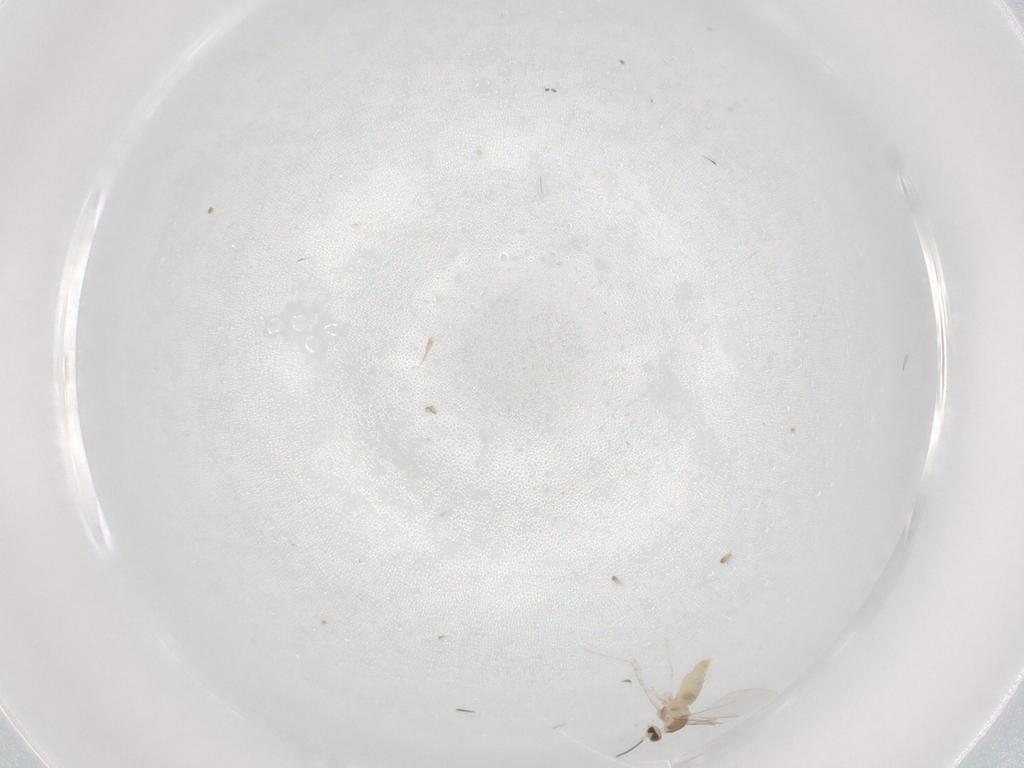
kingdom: Animalia
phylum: Arthropoda
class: Insecta
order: Diptera
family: Cecidomyiidae
